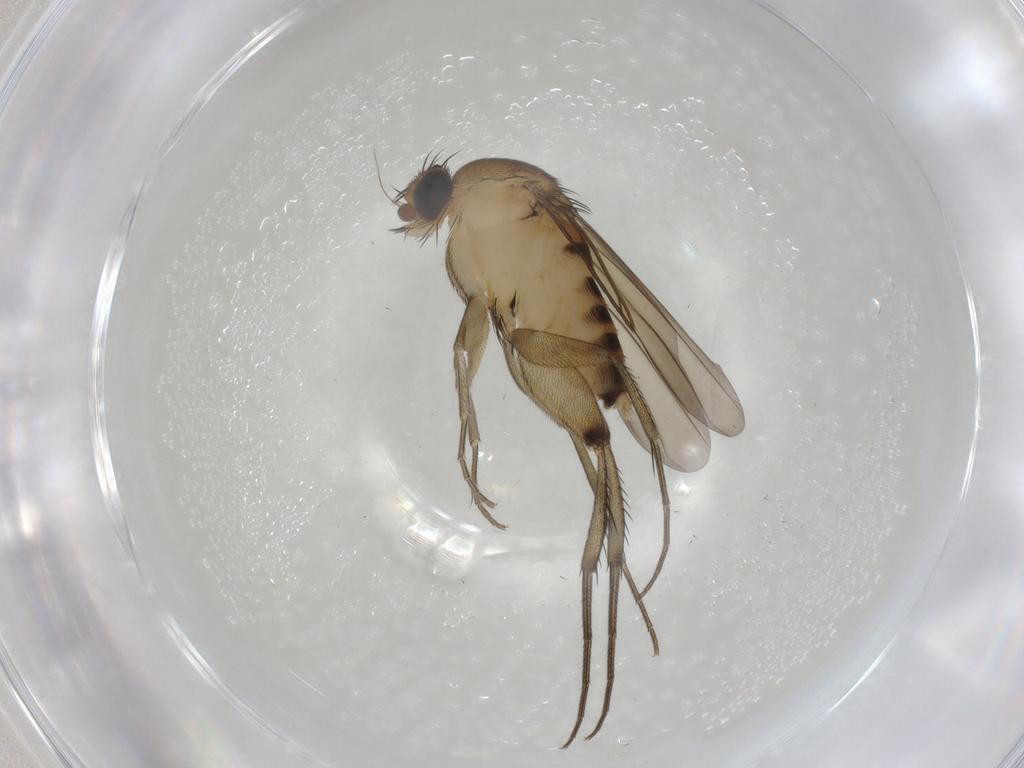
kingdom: Animalia
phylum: Arthropoda
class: Insecta
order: Diptera
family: Phoridae
